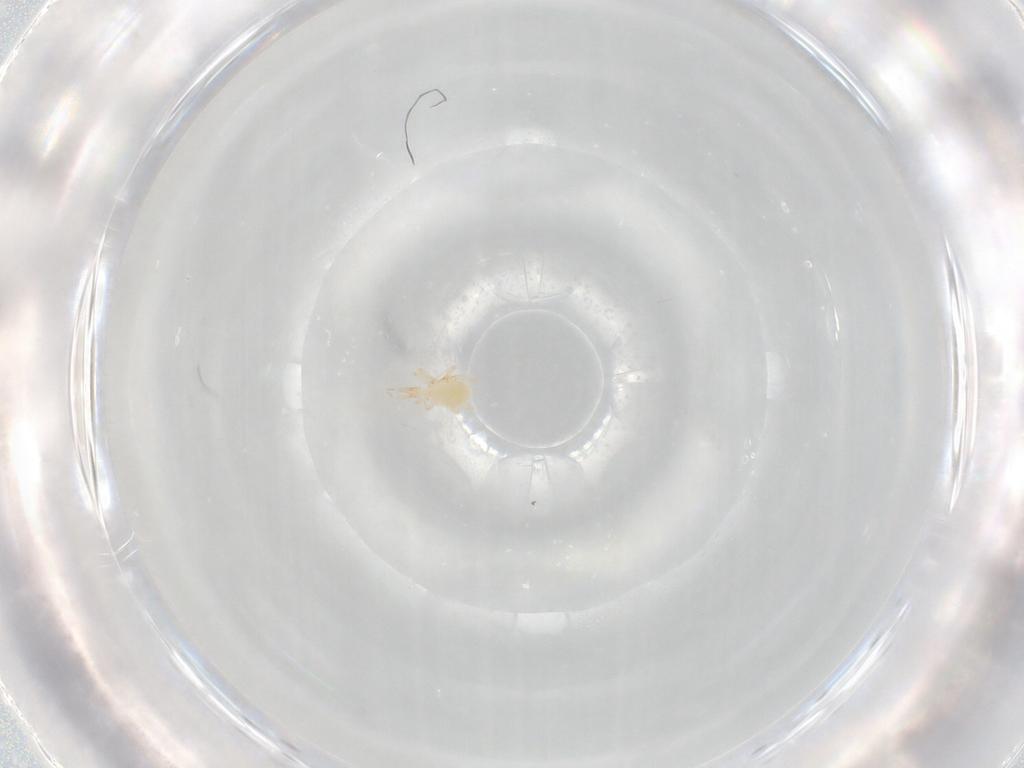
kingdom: Animalia
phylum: Arthropoda
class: Arachnida
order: Trombidiformes
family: Cunaxidae
